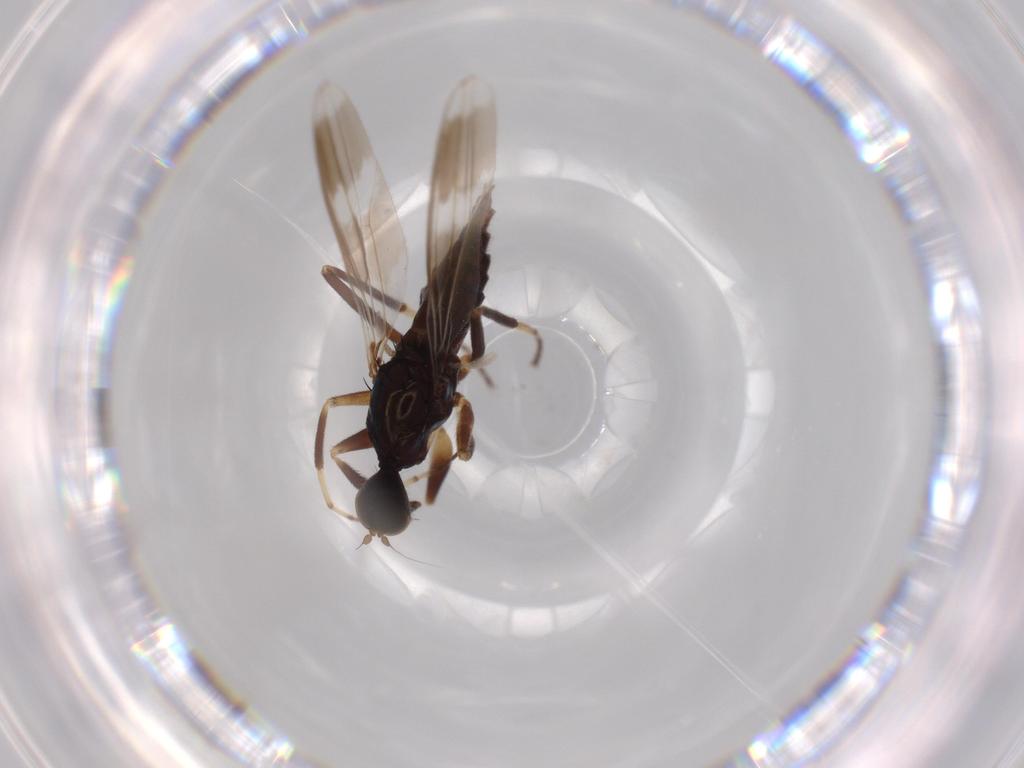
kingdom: Animalia
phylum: Arthropoda
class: Insecta
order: Diptera
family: Hybotidae
